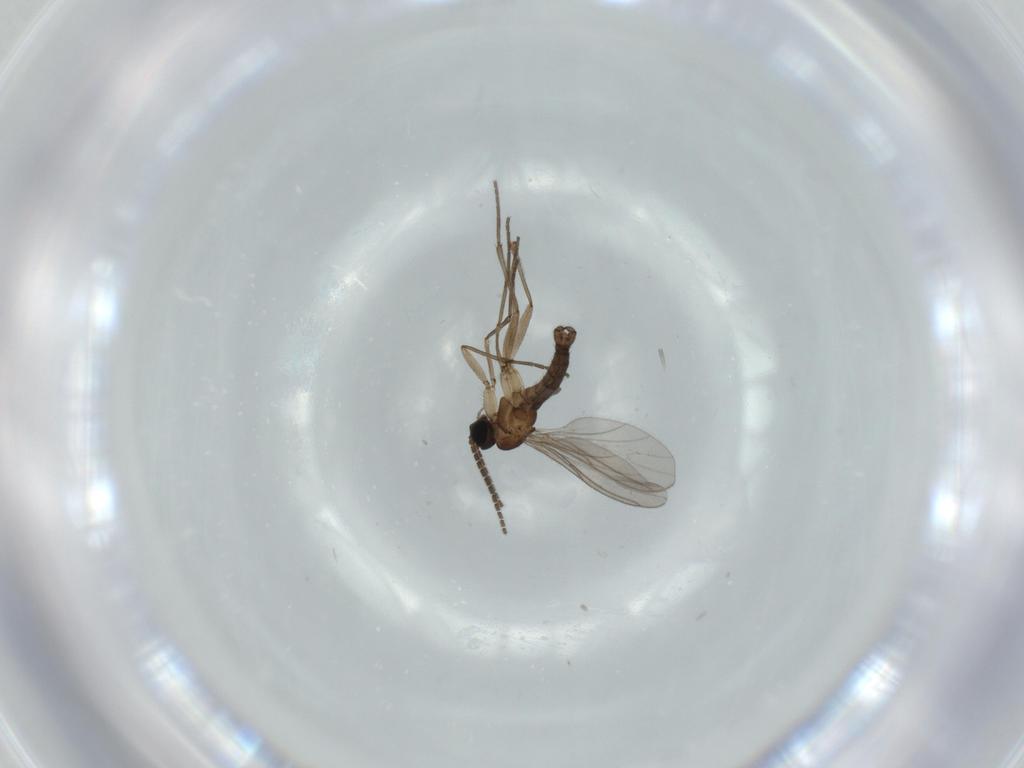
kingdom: Animalia
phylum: Arthropoda
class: Insecta
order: Diptera
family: Sciaridae
